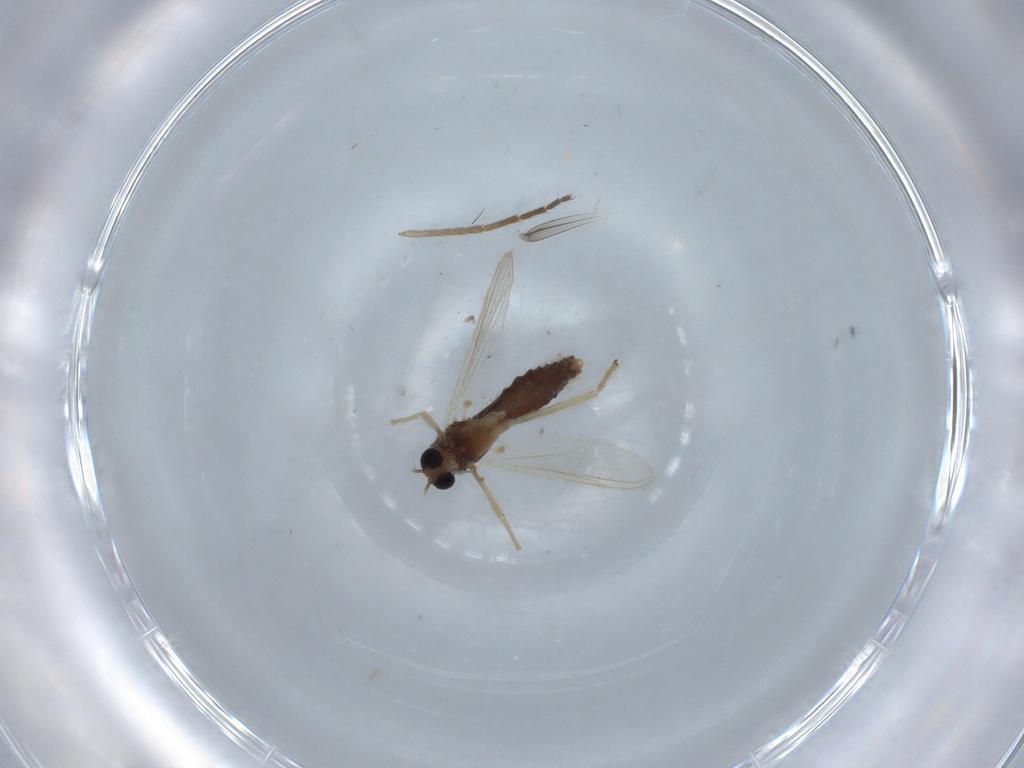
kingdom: Animalia
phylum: Arthropoda
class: Insecta
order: Diptera
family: Chironomidae
